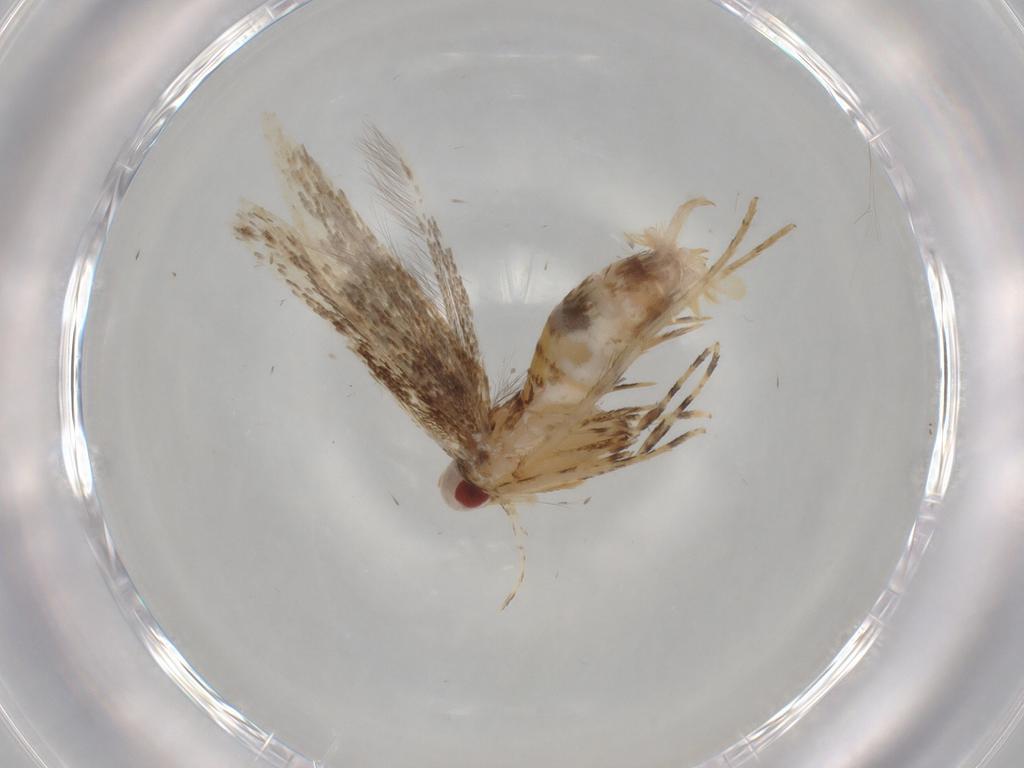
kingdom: Animalia
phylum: Arthropoda
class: Insecta
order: Lepidoptera
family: Cosmopterigidae
